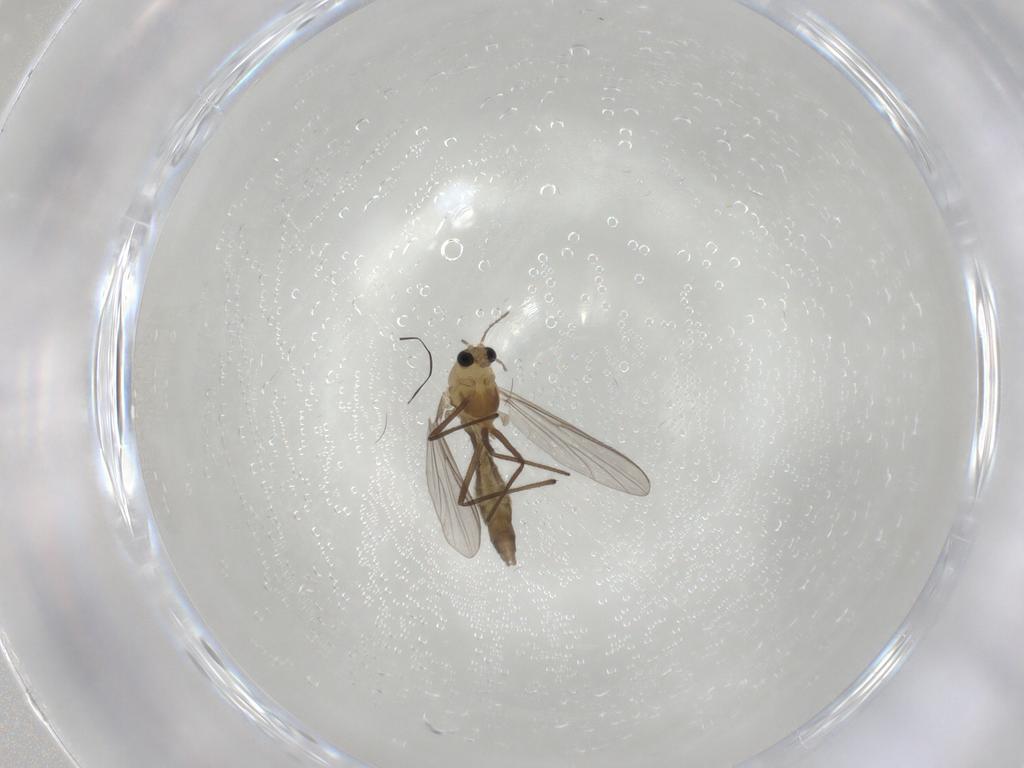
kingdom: Animalia
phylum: Arthropoda
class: Insecta
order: Diptera
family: Chironomidae
